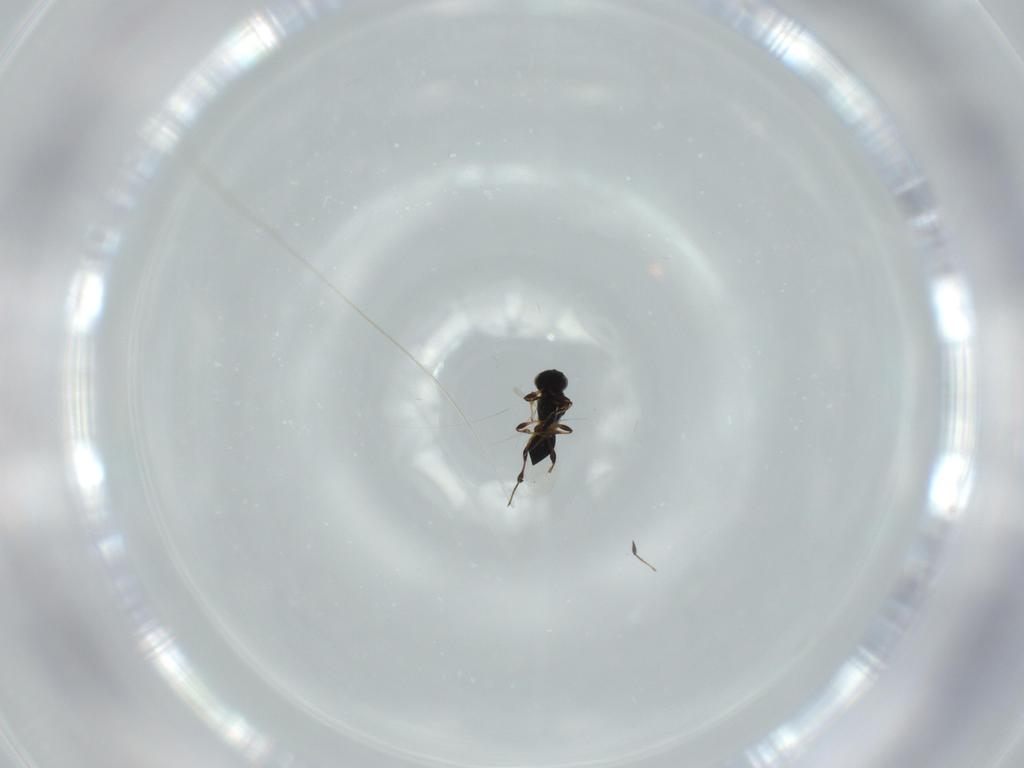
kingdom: Animalia
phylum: Arthropoda
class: Insecta
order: Hymenoptera
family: Platygastridae
